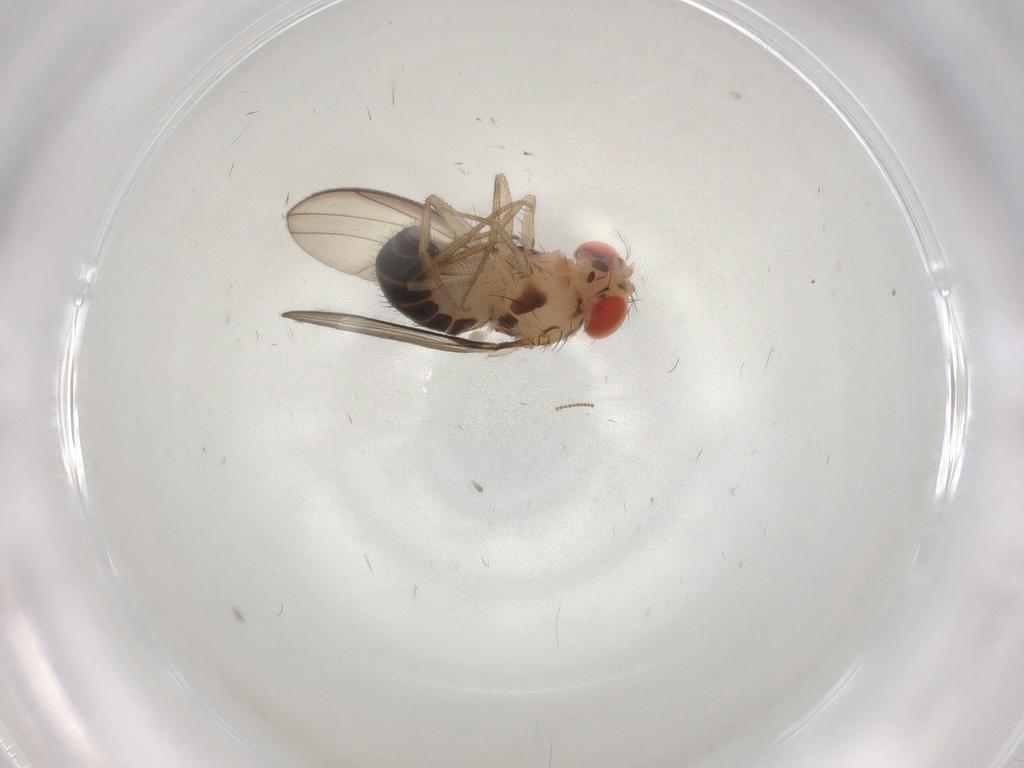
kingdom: Animalia
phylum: Arthropoda
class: Insecta
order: Diptera
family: Drosophilidae
